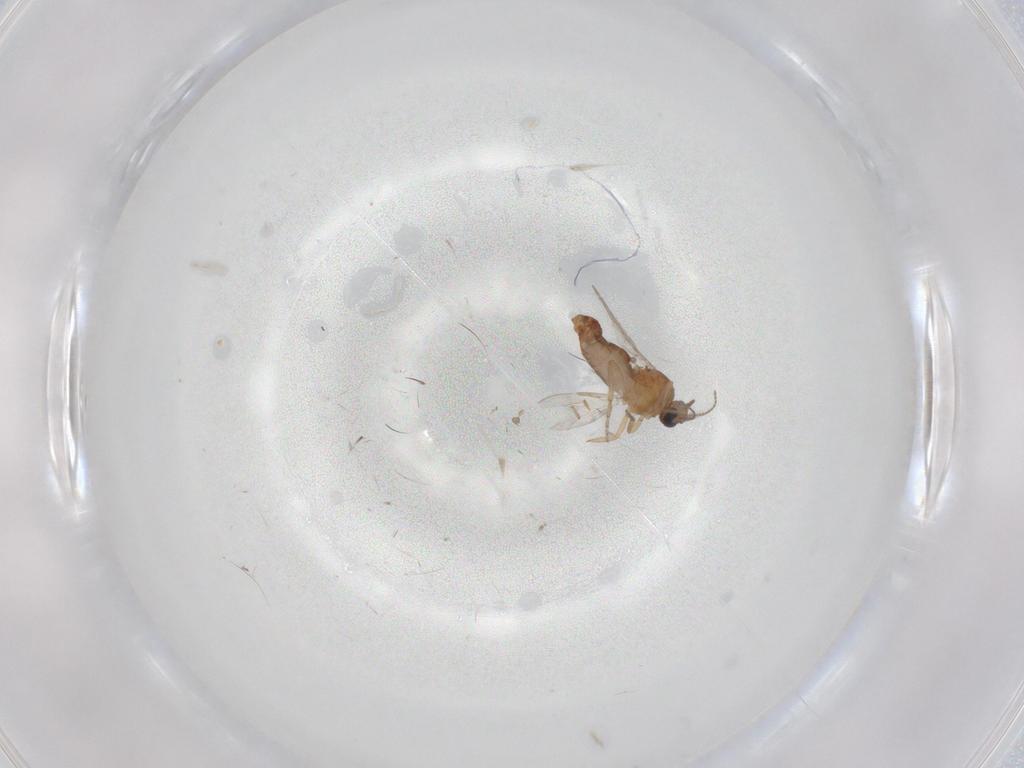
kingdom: Animalia
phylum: Arthropoda
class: Insecta
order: Diptera
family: Ceratopogonidae
